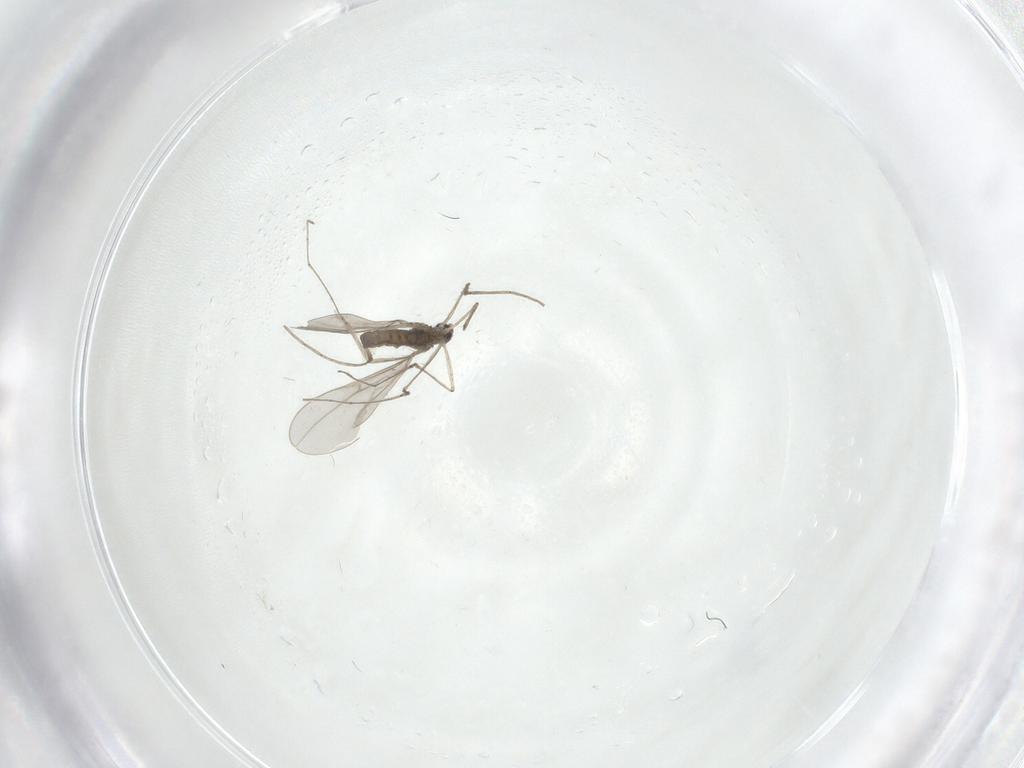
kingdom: Animalia
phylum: Arthropoda
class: Insecta
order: Diptera
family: Cecidomyiidae
